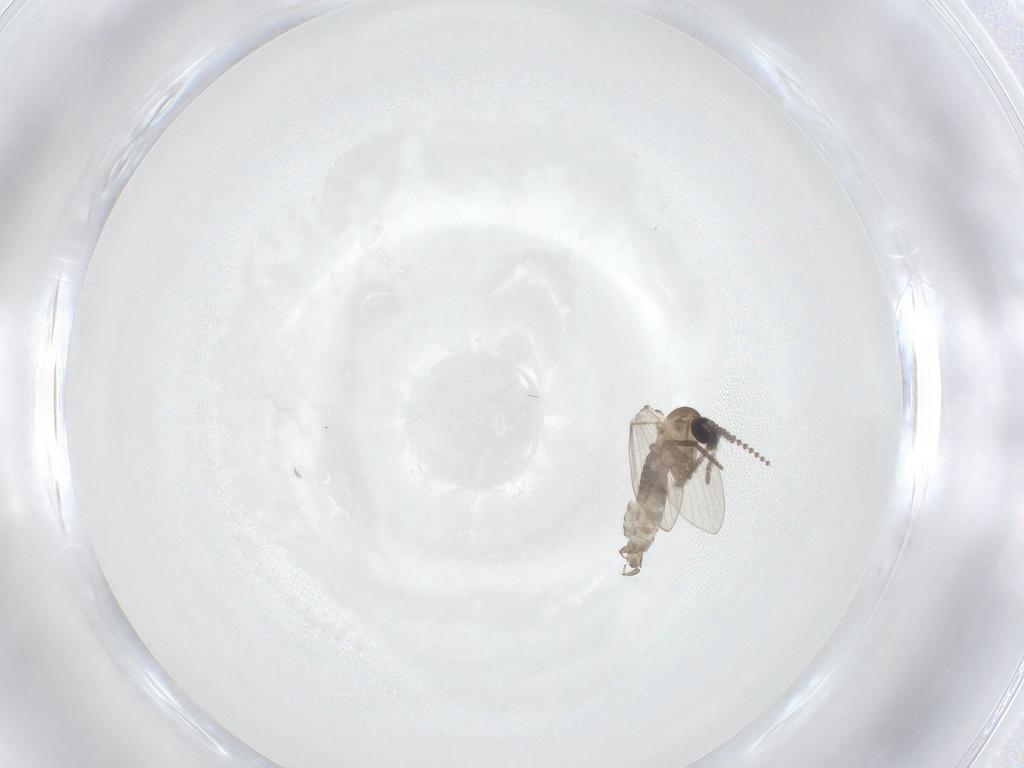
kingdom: Animalia
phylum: Arthropoda
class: Insecta
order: Diptera
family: Psychodidae
